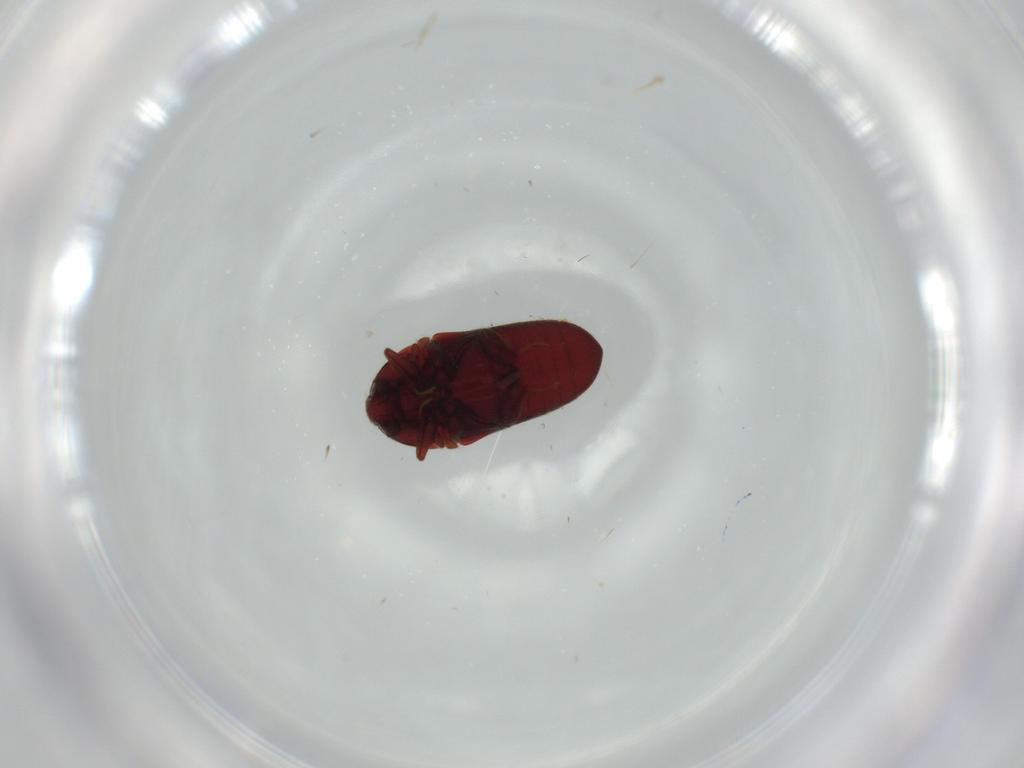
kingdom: Animalia
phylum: Arthropoda
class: Insecta
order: Coleoptera
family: Throscidae
